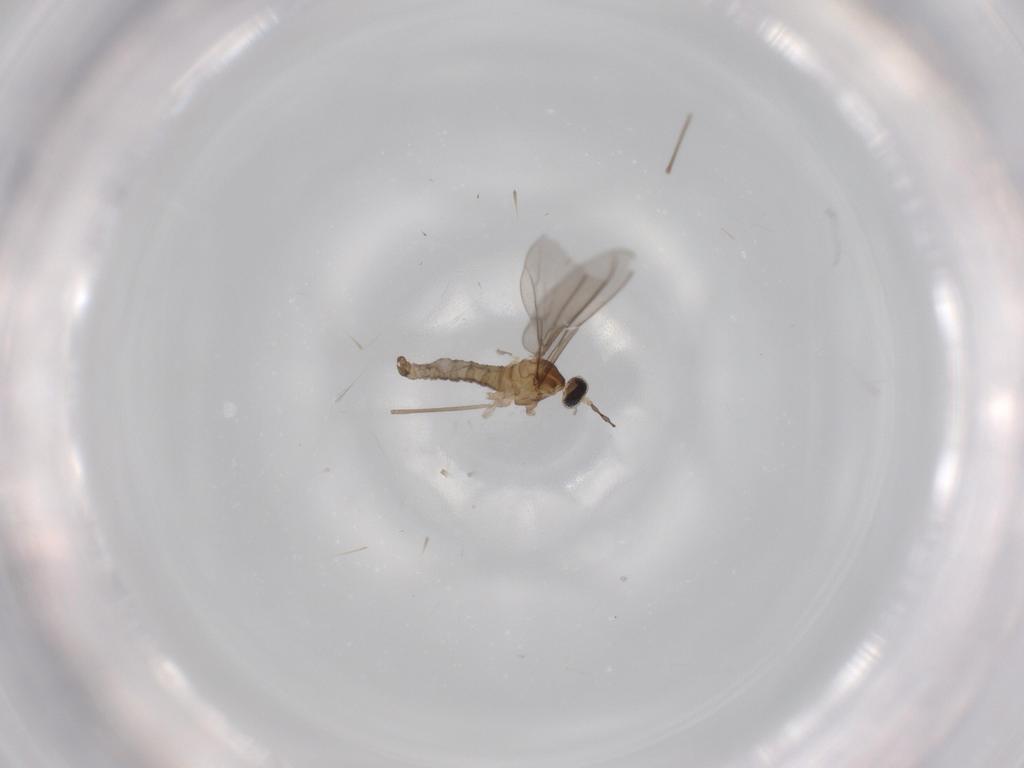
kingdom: Animalia
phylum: Arthropoda
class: Insecta
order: Diptera
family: Cecidomyiidae
